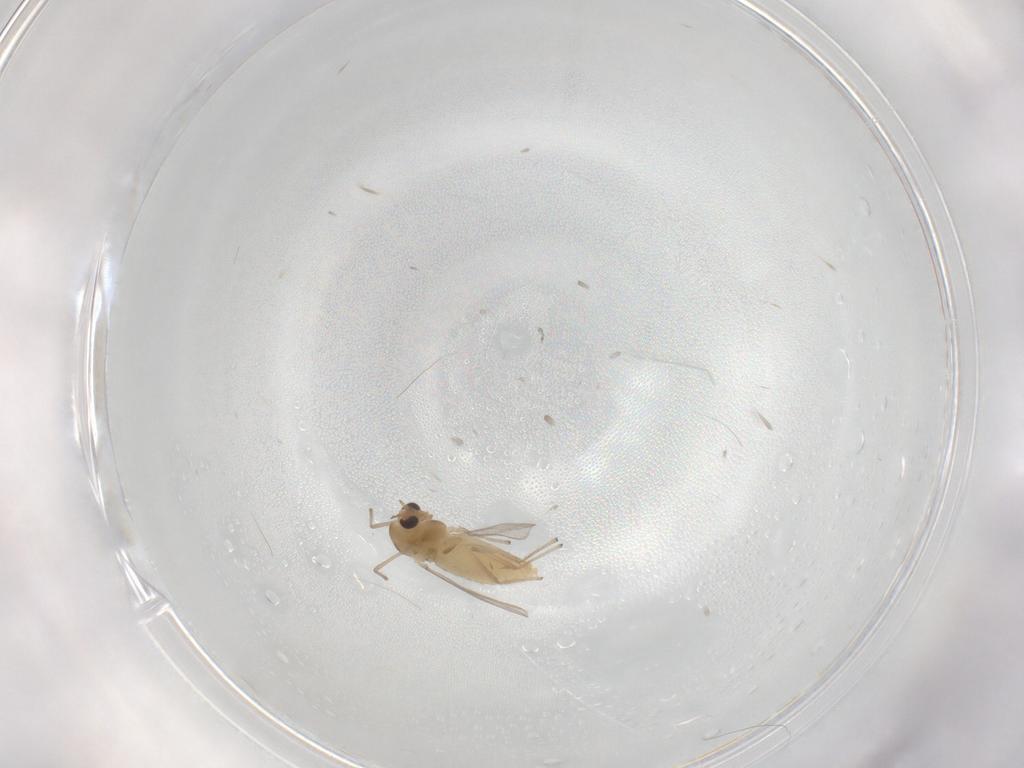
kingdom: Animalia
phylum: Arthropoda
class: Insecta
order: Diptera
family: Chironomidae
